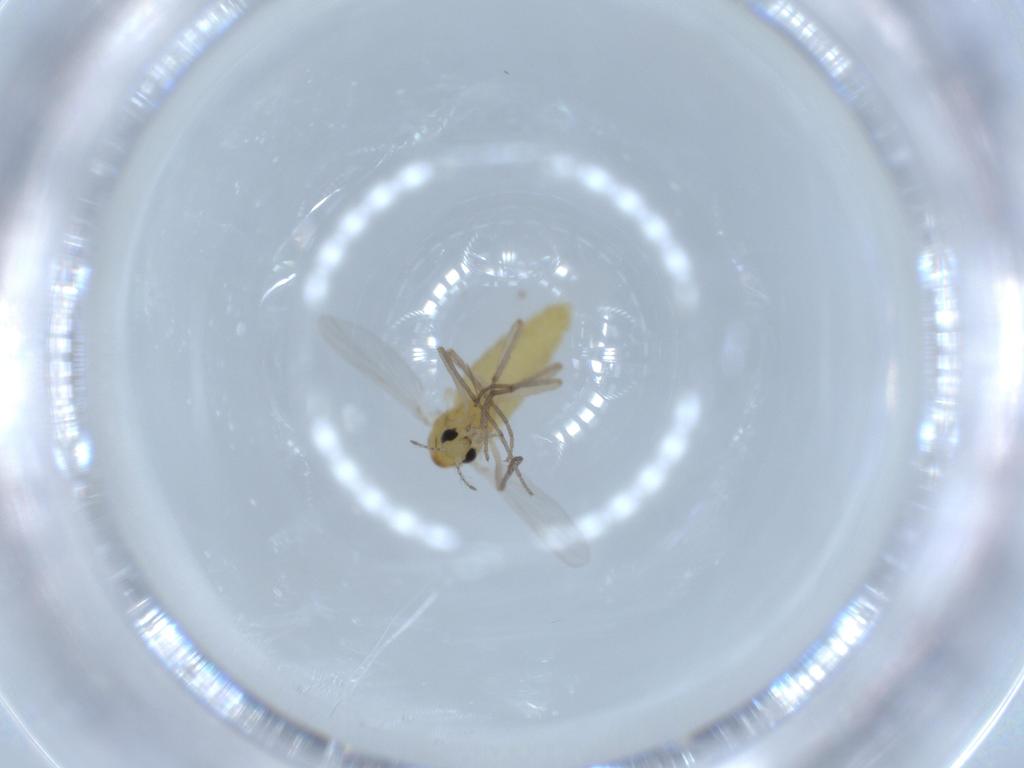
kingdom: Animalia
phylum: Arthropoda
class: Insecta
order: Diptera
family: Chironomidae
